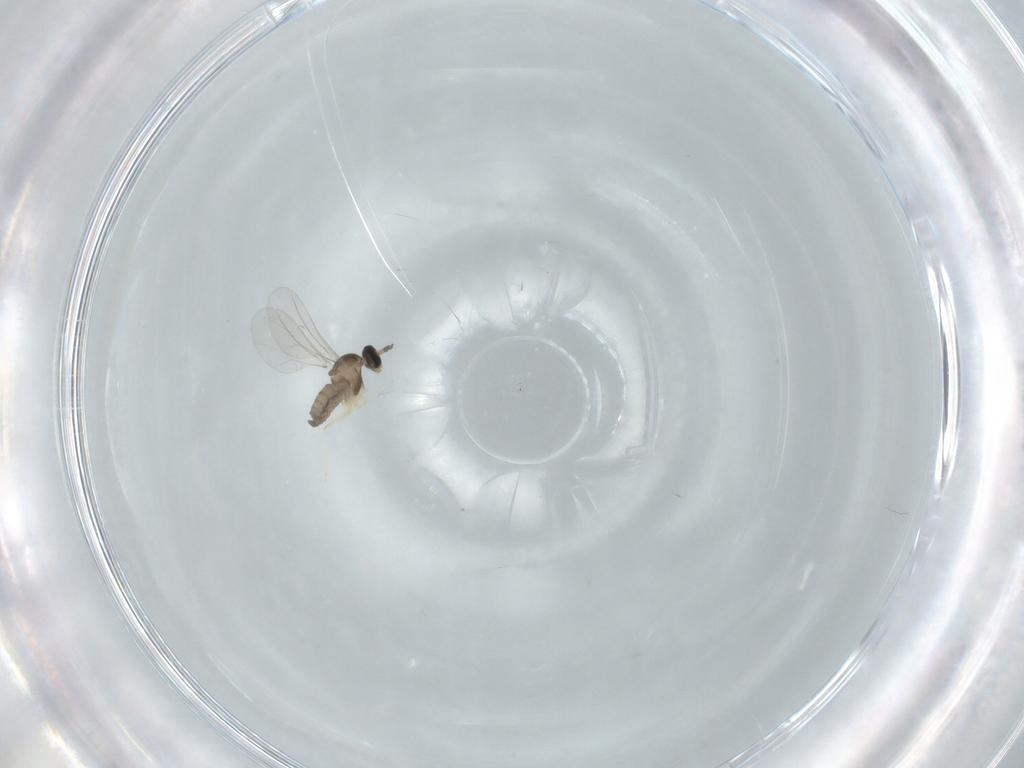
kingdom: Animalia
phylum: Arthropoda
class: Insecta
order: Diptera
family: Cecidomyiidae
